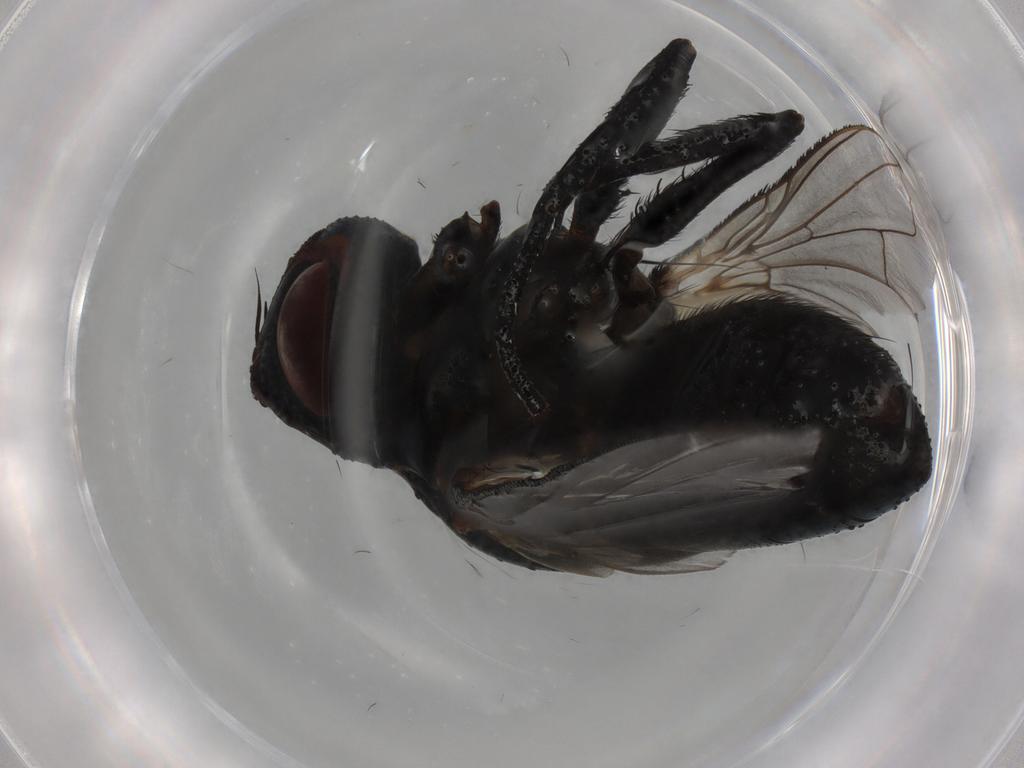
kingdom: Animalia
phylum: Arthropoda
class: Insecta
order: Diptera
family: Tachinidae
